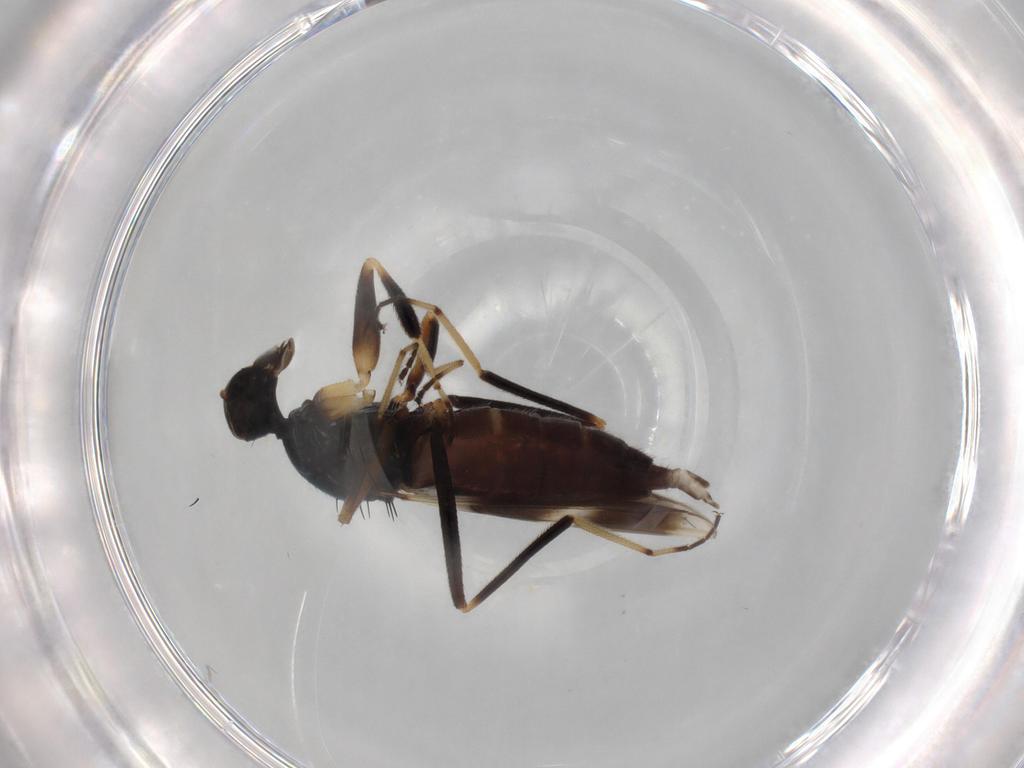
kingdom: Animalia
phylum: Arthropoda
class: Insecta
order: Diptera
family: Hybotidae
